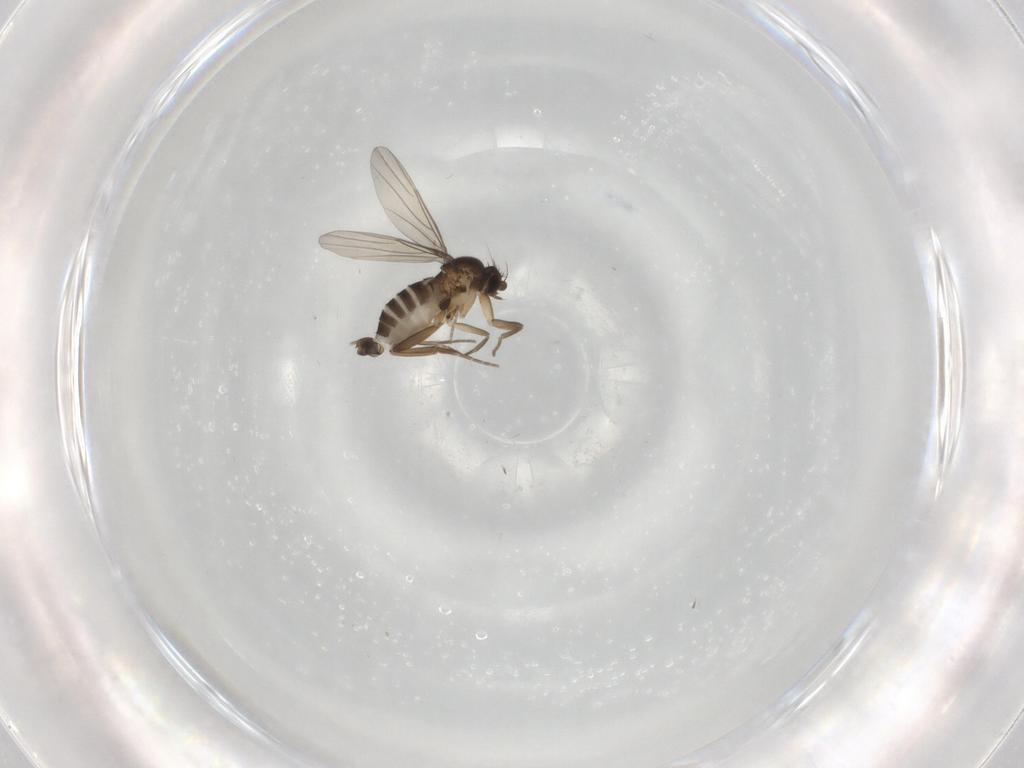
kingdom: Animalia
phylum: Arthropoda
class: Insecta
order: Diptera
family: Phoridae
